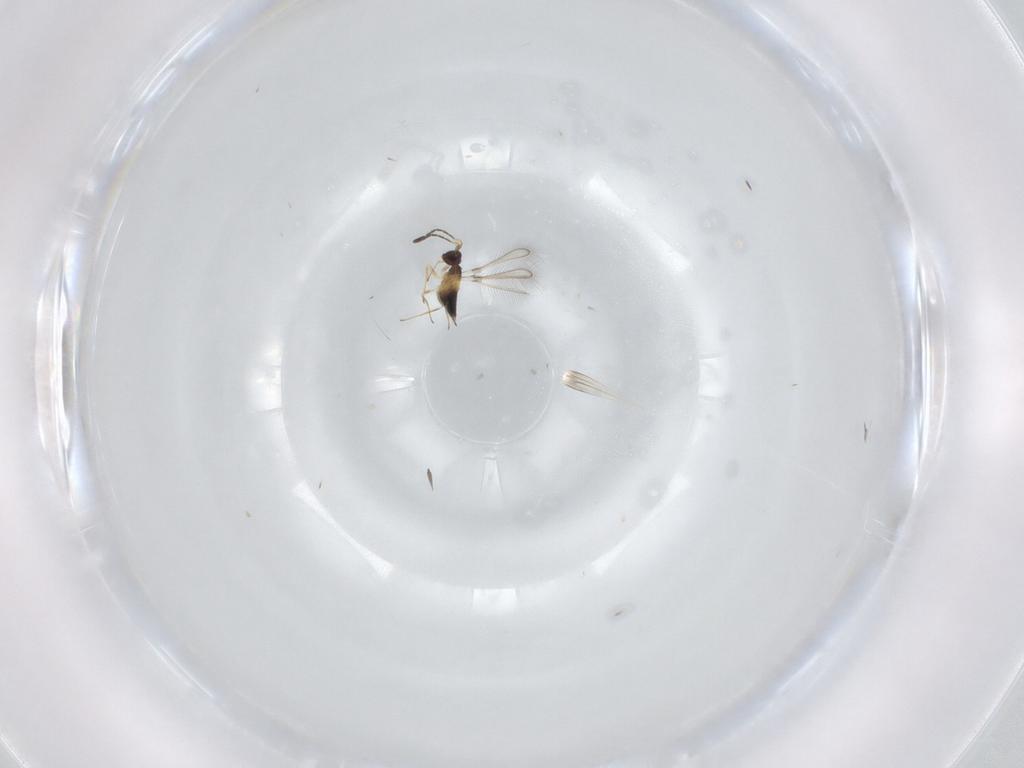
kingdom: Animalia
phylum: Arthropoda
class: Insecta
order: Hymenoptera
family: Mymaridae
